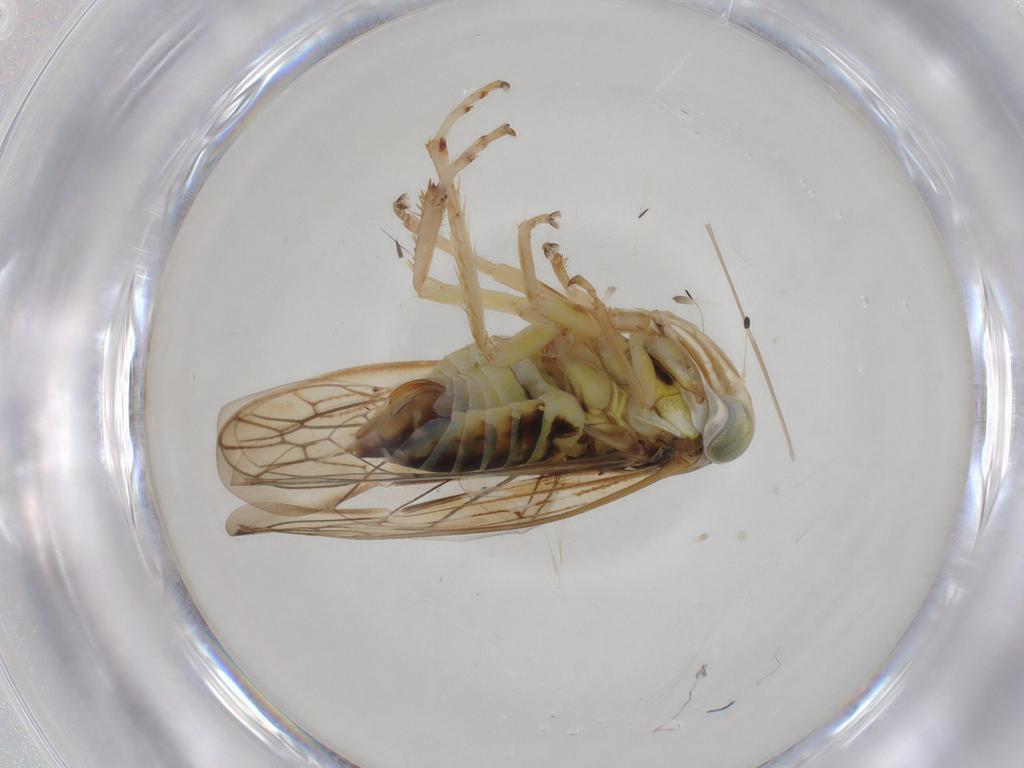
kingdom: Animalia
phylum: Arthropoda
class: Insecta
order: Hemiptera
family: Cicadellidae
